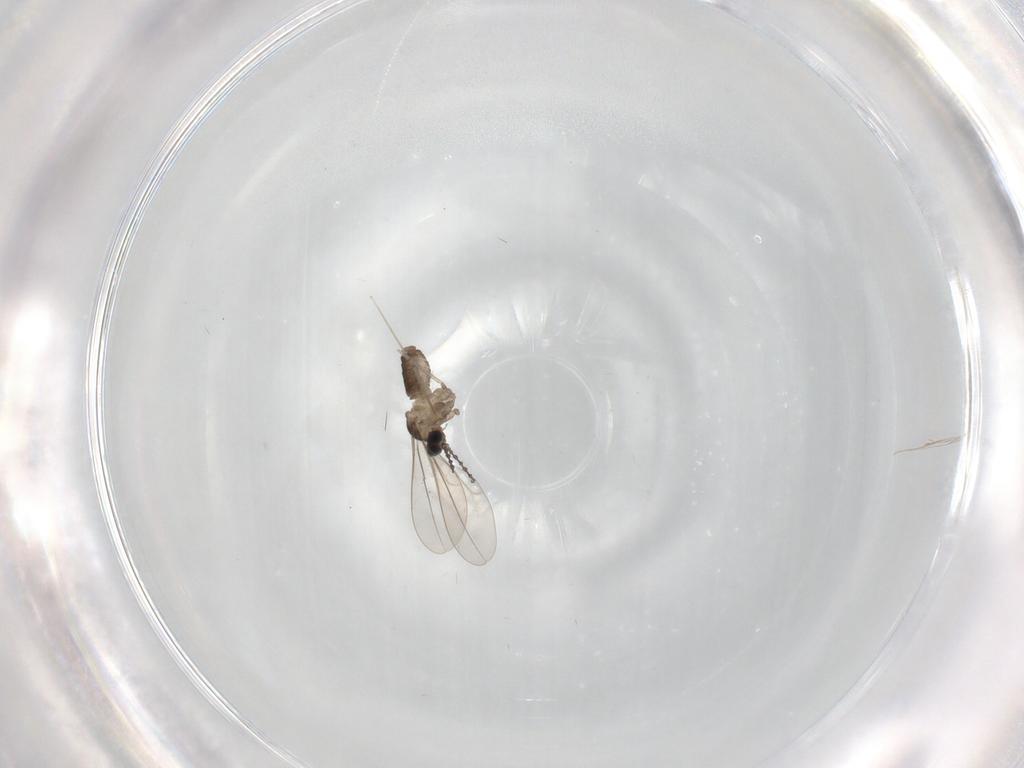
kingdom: Animalia
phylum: Arthropoda
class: Insecta
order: Diptera
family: Cecidomyiidae
